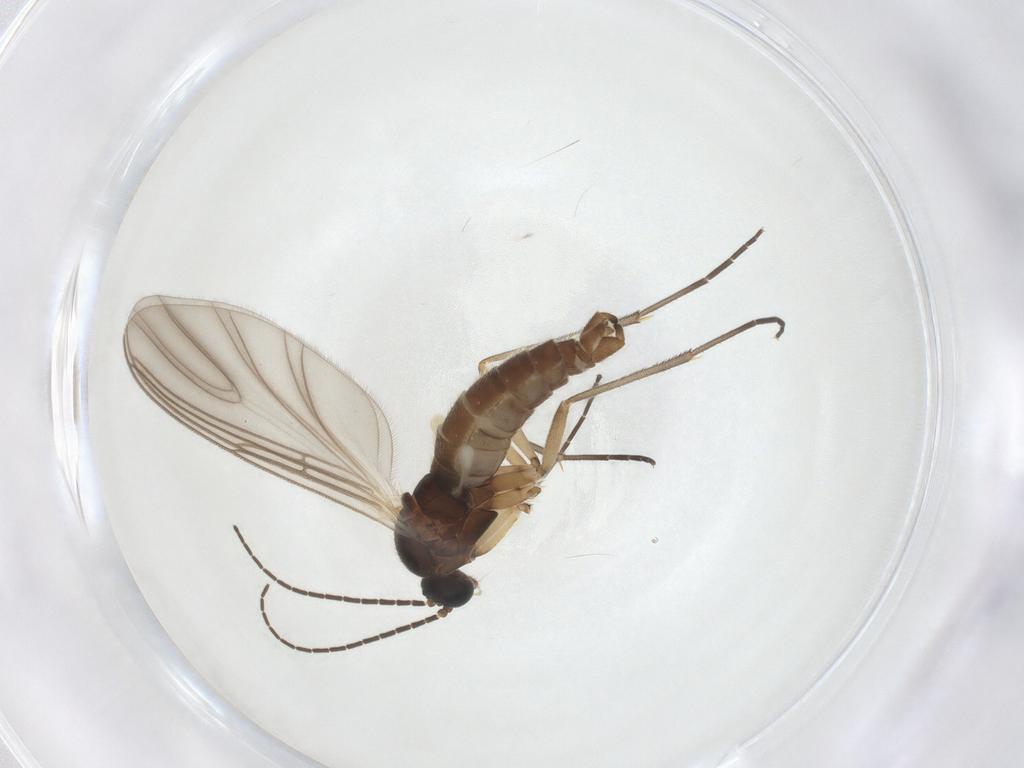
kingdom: Animalia
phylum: Arthropoda
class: Insecta
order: Diptera
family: Sciaridae
